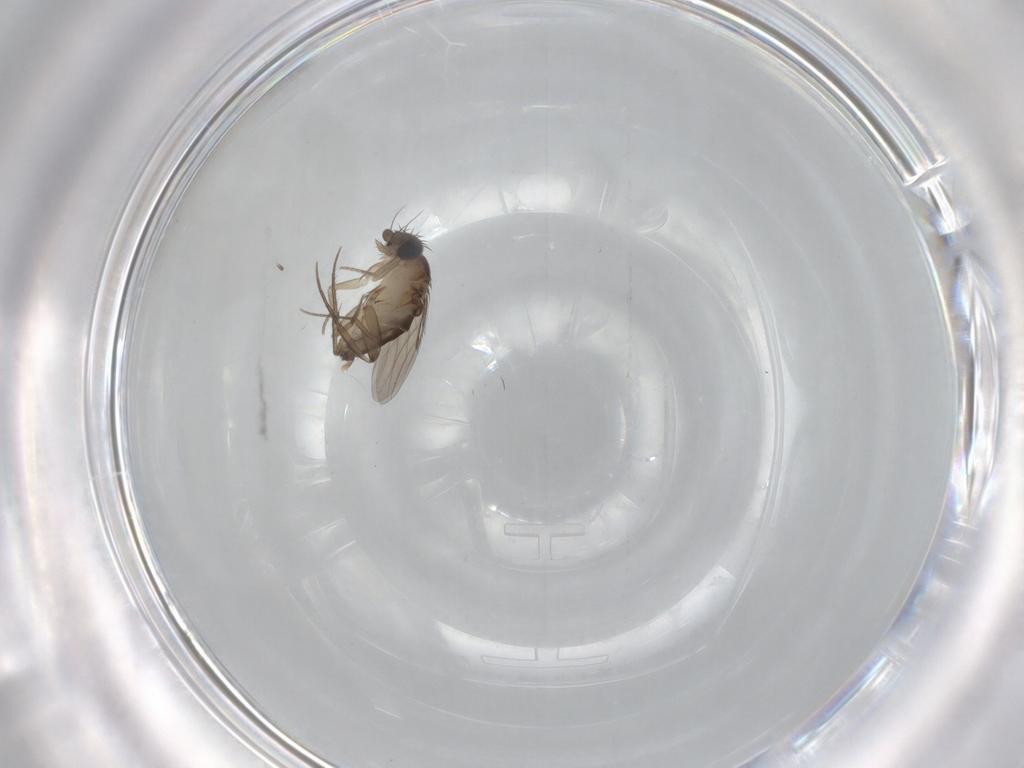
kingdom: Animalia
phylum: Arthropoda
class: Insecta
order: Diptera
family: Phoridae
